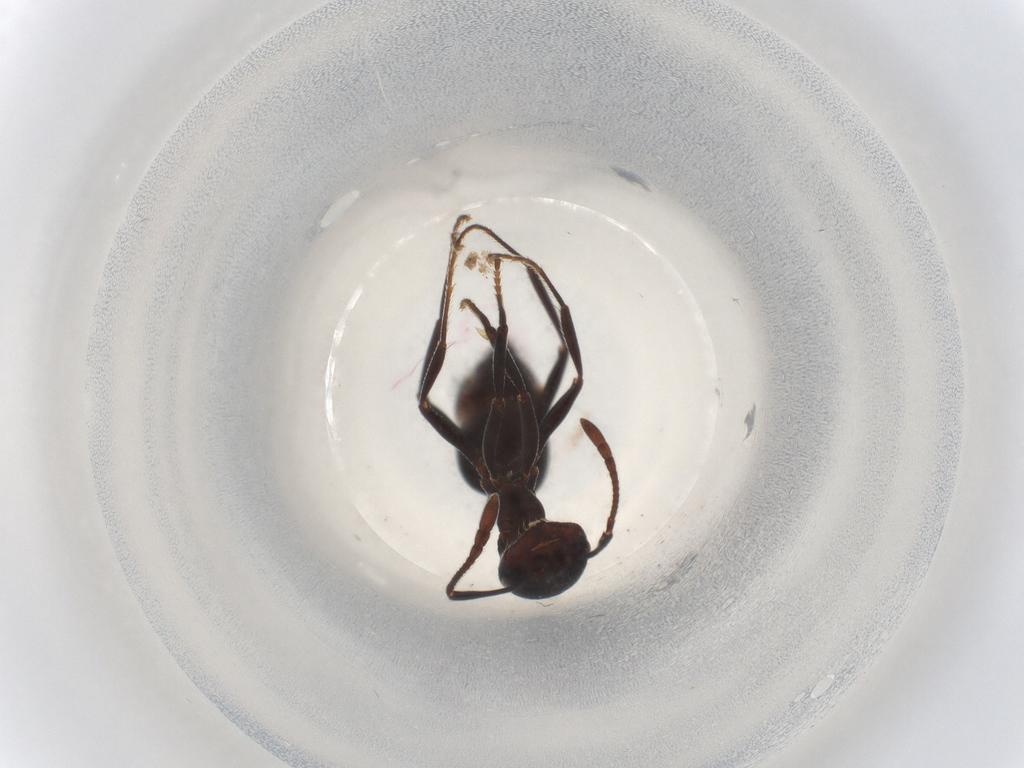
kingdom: Animalia
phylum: Arthropoda
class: Insecta
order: Hymenoptera
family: Formicidae
